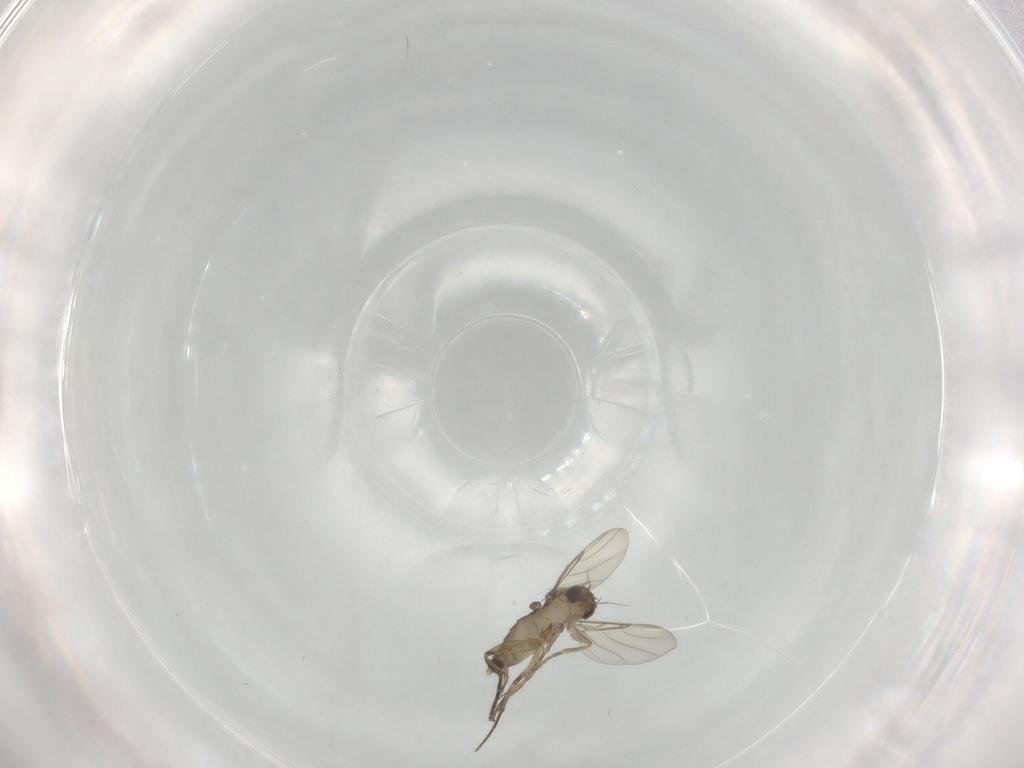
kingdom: Animalia
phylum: Arthropoda
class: Insecta
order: Diptera
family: Phoridae
